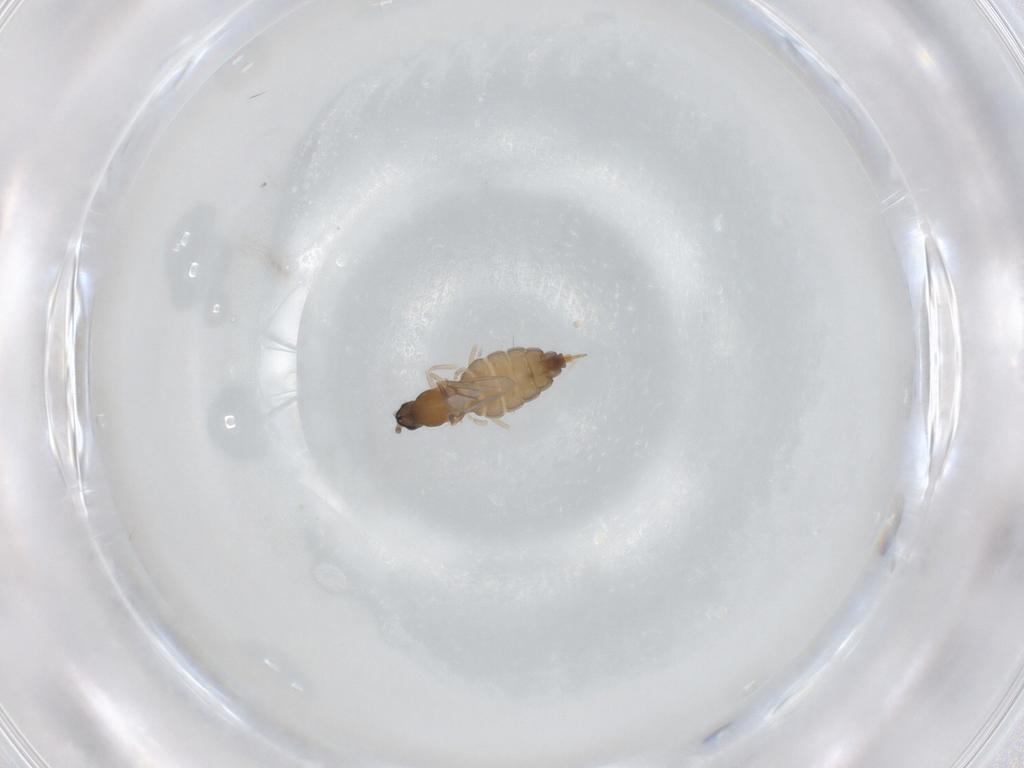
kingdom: Animalia
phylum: Arthropoda
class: Insecta
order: Diptera
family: Cecidomyiidae
